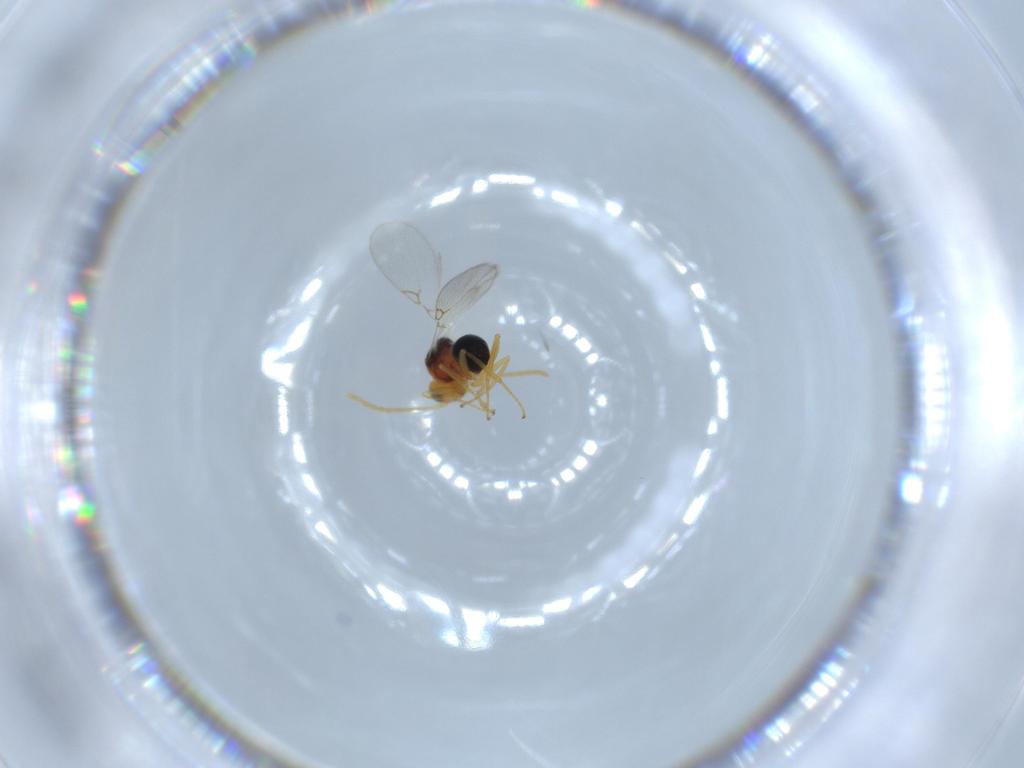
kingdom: Animalia
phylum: Arthropoda
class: Insecta
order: Hymenoptera
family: Figitidae
